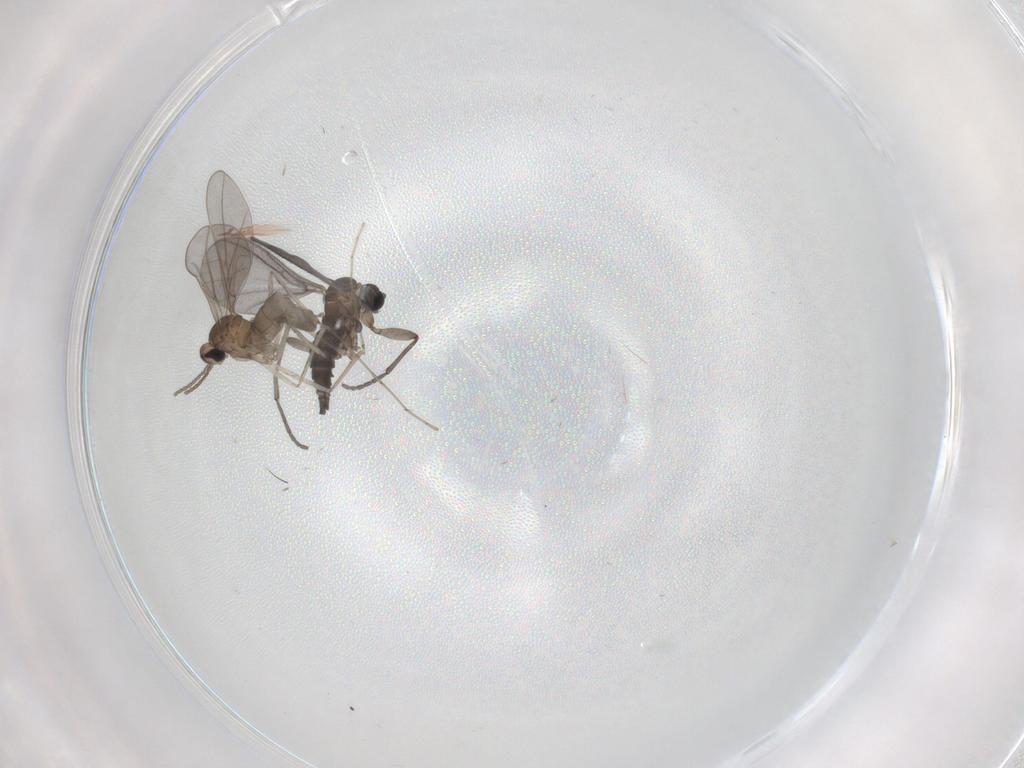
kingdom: Animalia
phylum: Arthropoda
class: Insecta
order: Diptera
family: Sciaridae
